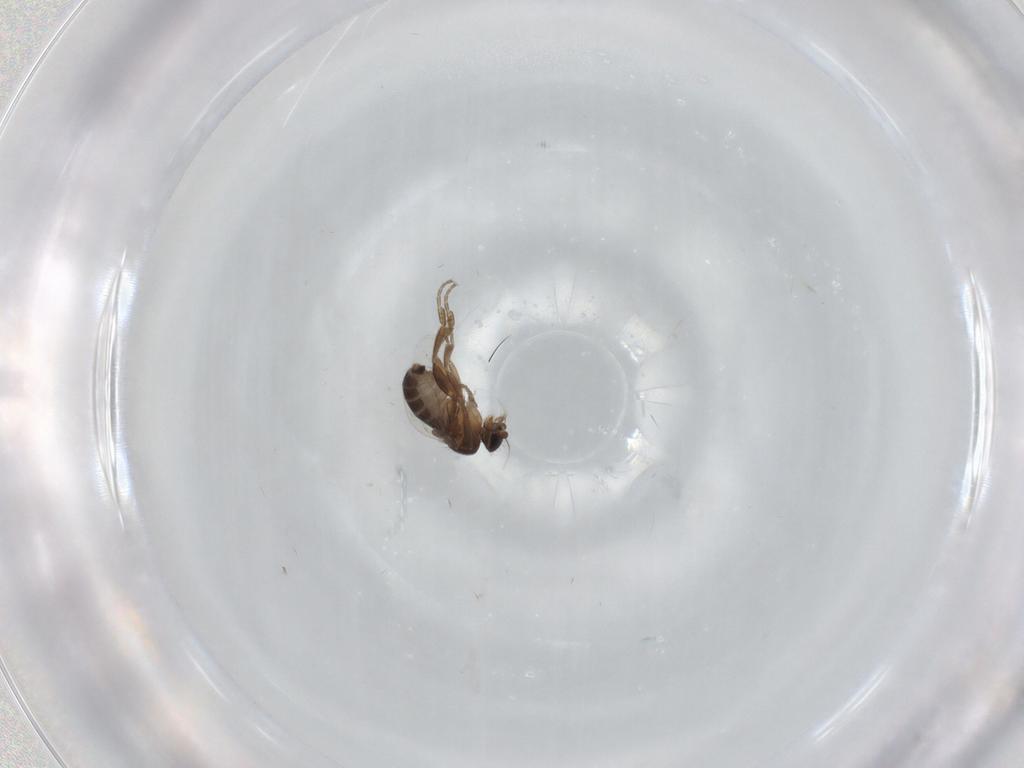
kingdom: Animalia
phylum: Arthropoda
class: Insecta
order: Diptera
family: Phoridae
